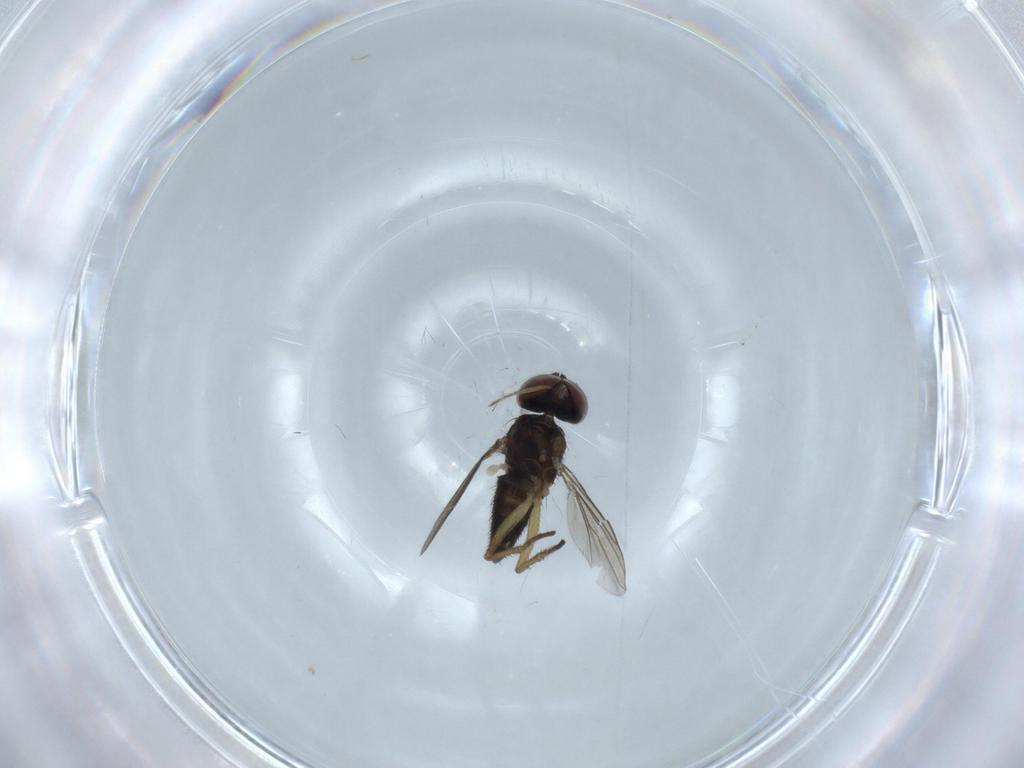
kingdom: Animalia
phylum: Arthropoda
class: Insecta
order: Diptera
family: Dolichopodidae
